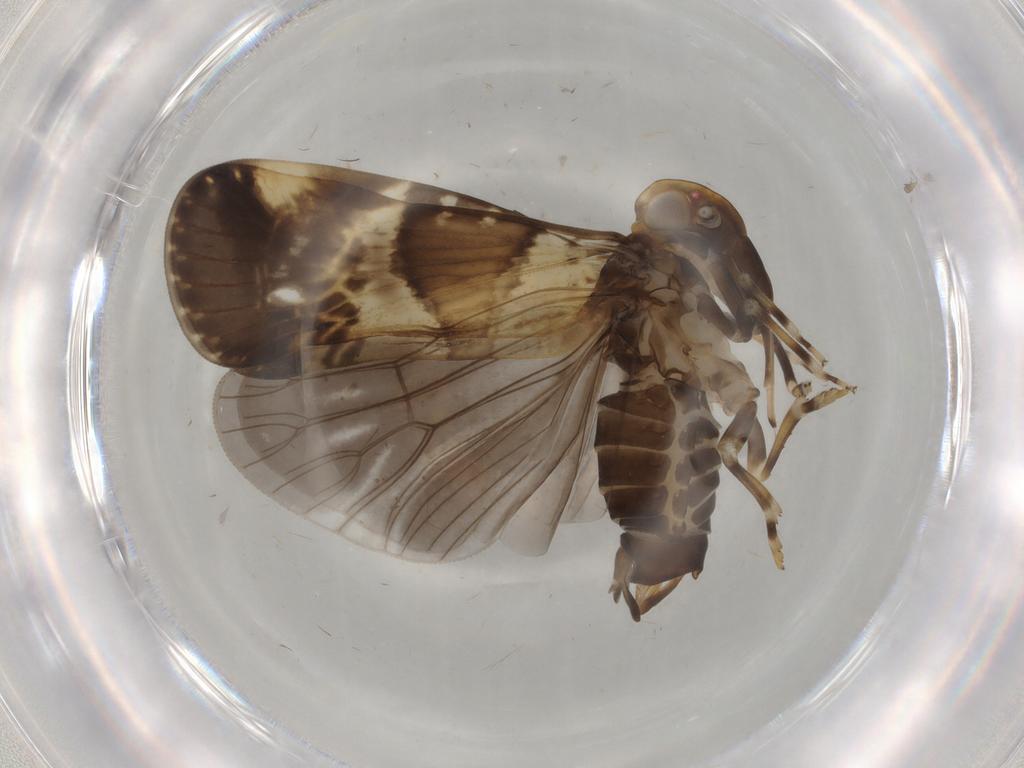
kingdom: Animalia
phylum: Arthropoda
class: Insecta
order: Hemiptera
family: Cixiidae
